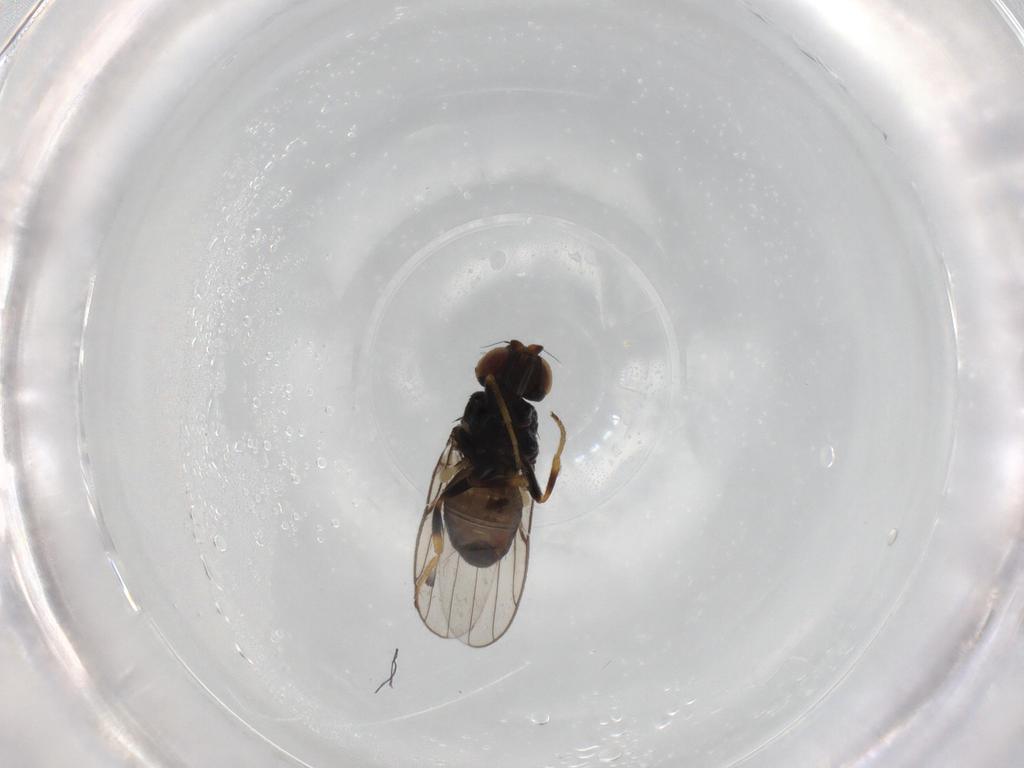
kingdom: Animalia
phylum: Arthropoda
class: Insecta
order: Diptera
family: Chloropidae
